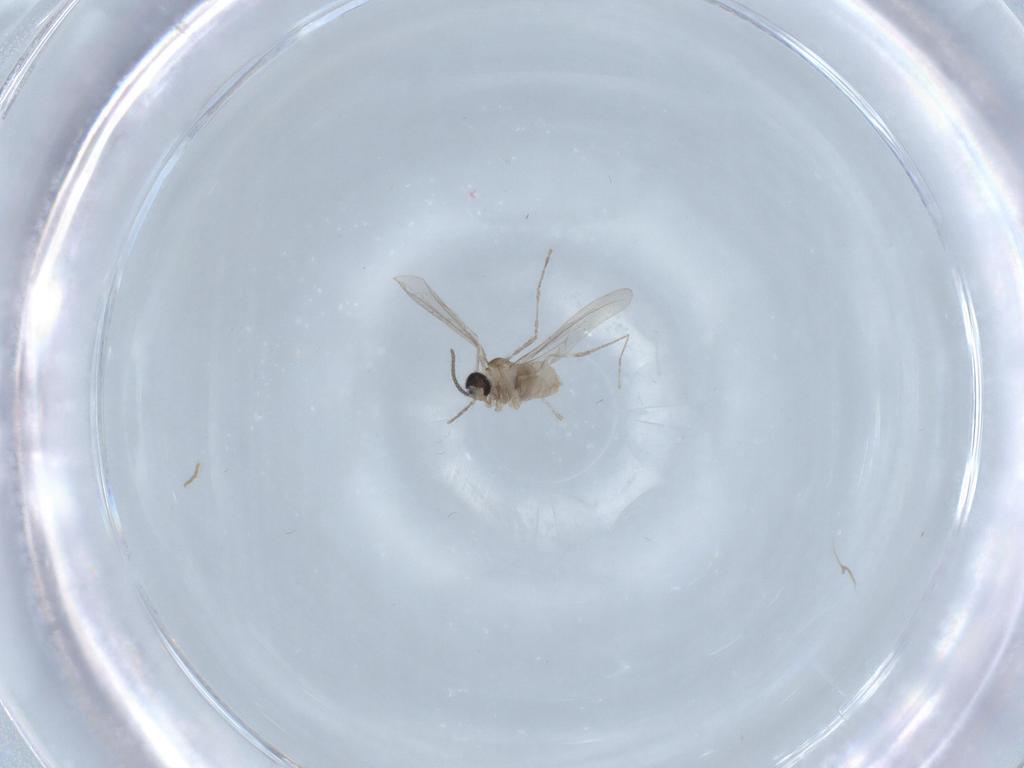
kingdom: Animalia
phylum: Arthropoda
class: Insecta
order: Diptera
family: Cecidomyiidae
